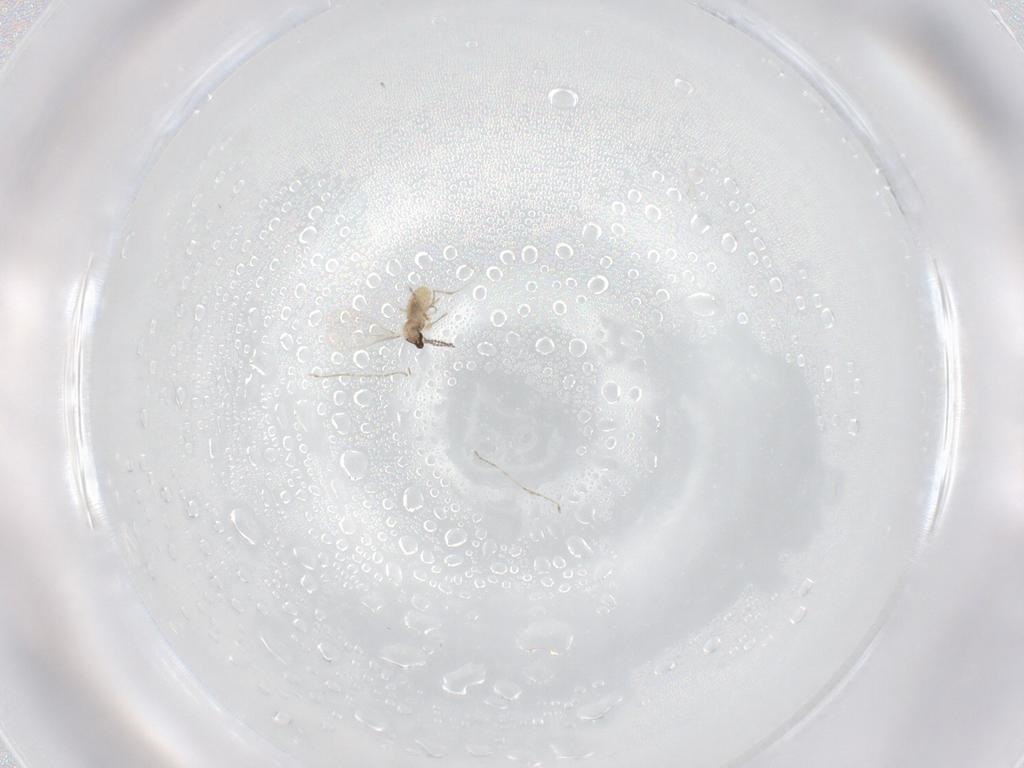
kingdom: Animalia
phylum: Arthropoda
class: Insecta
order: Diptera
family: Cecidomyiidae
